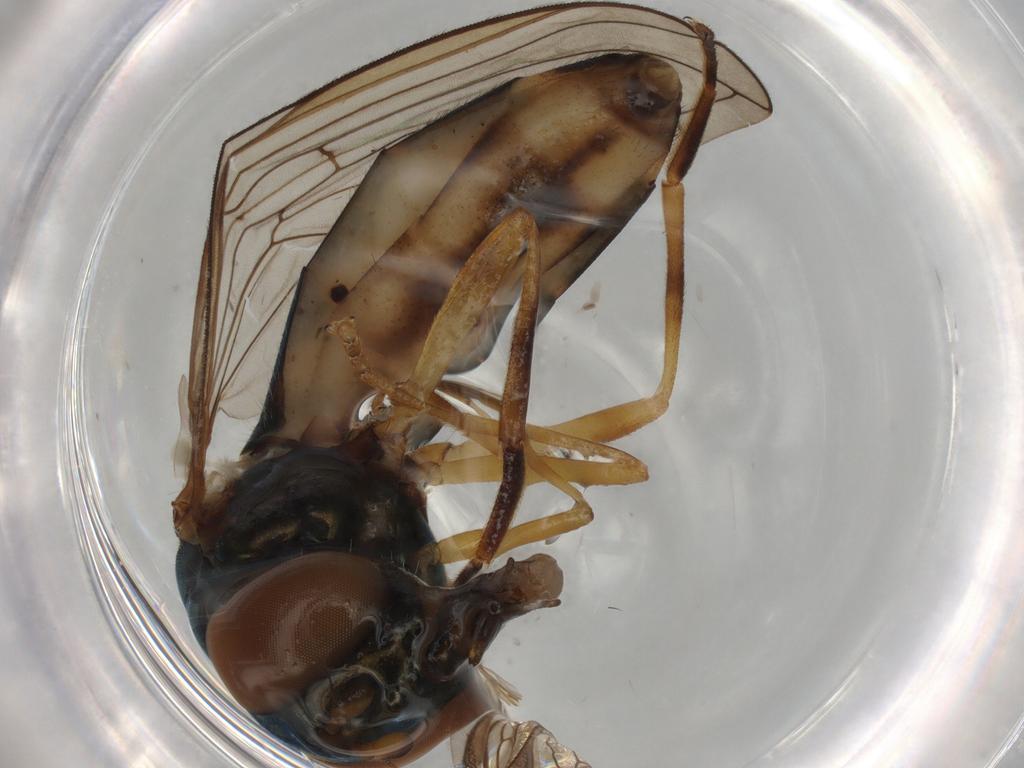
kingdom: Animalia
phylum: Arthropoda
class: Insecta
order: Diptera
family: Syrphidae
